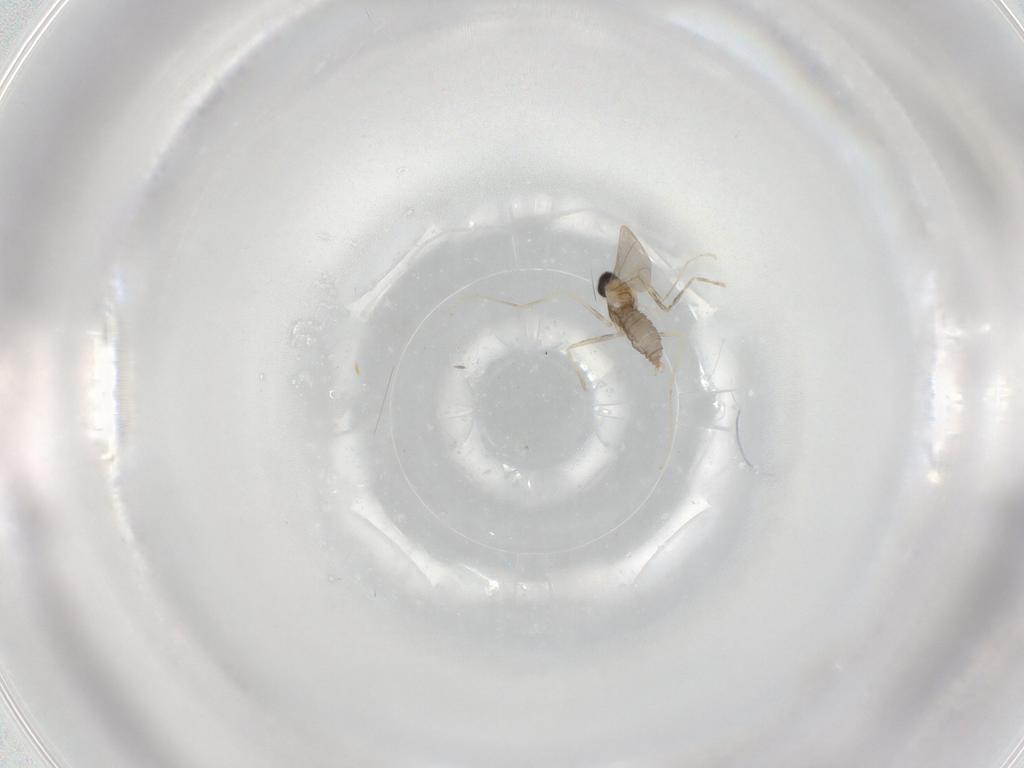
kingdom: Animalia
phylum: Arthropoda
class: Insecta
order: Diptera
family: Cecidomyiidae
